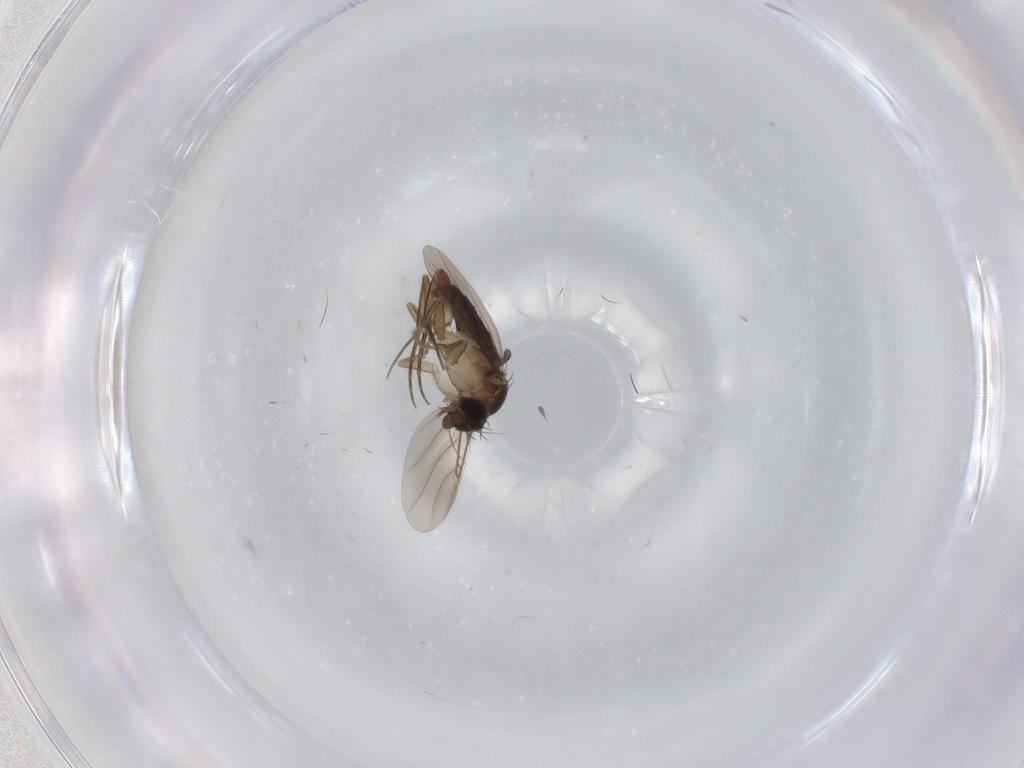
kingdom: Animalia
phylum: Arthropoda
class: Insecta
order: Diptera
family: Phoridae
